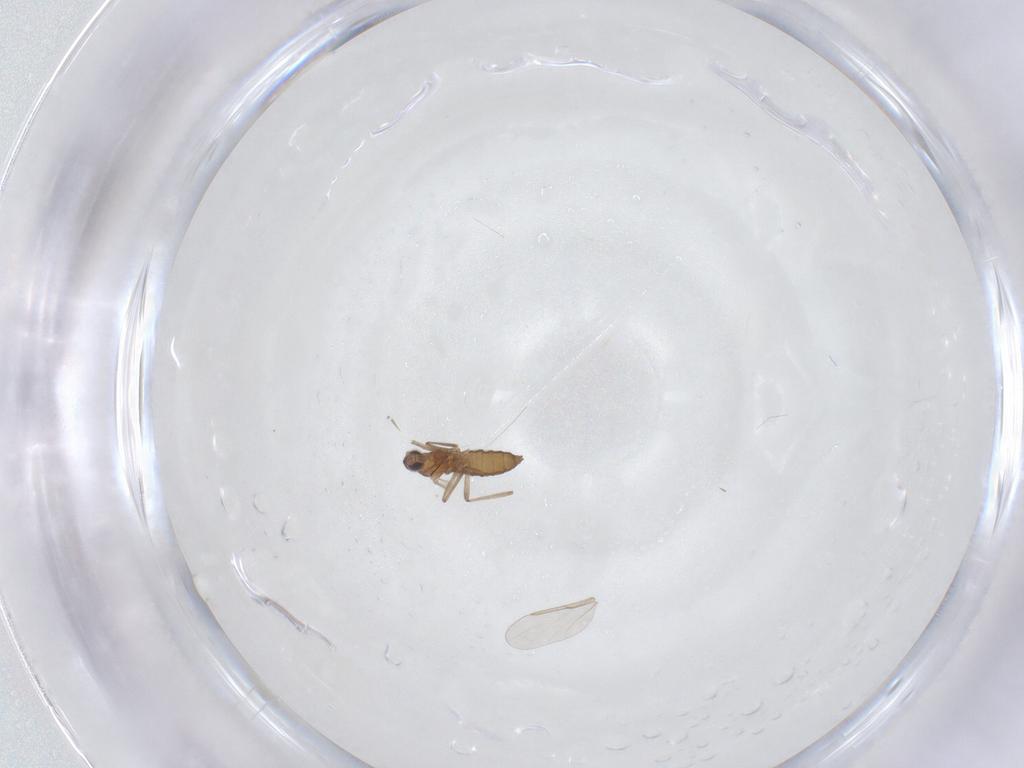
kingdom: Animalia
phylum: Arthropoda
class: Insecta
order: Diptera
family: Cecidomyiidae
